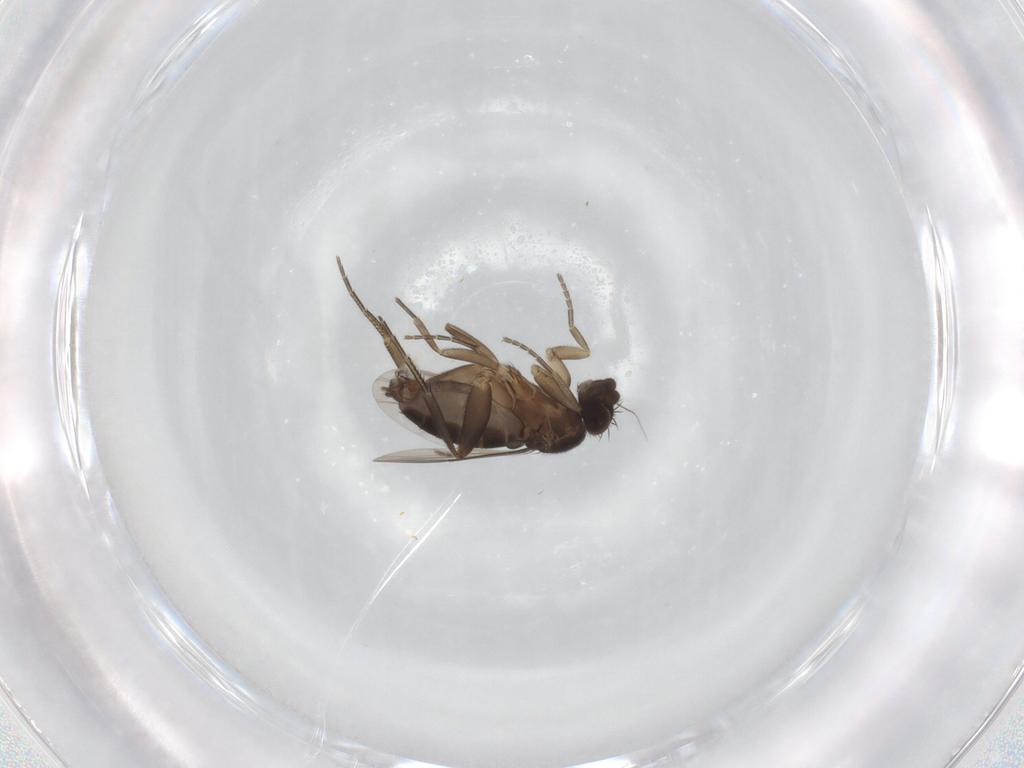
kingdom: Animalia
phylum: Arthropoda
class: Insecta
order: Diptera
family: Phoridae
